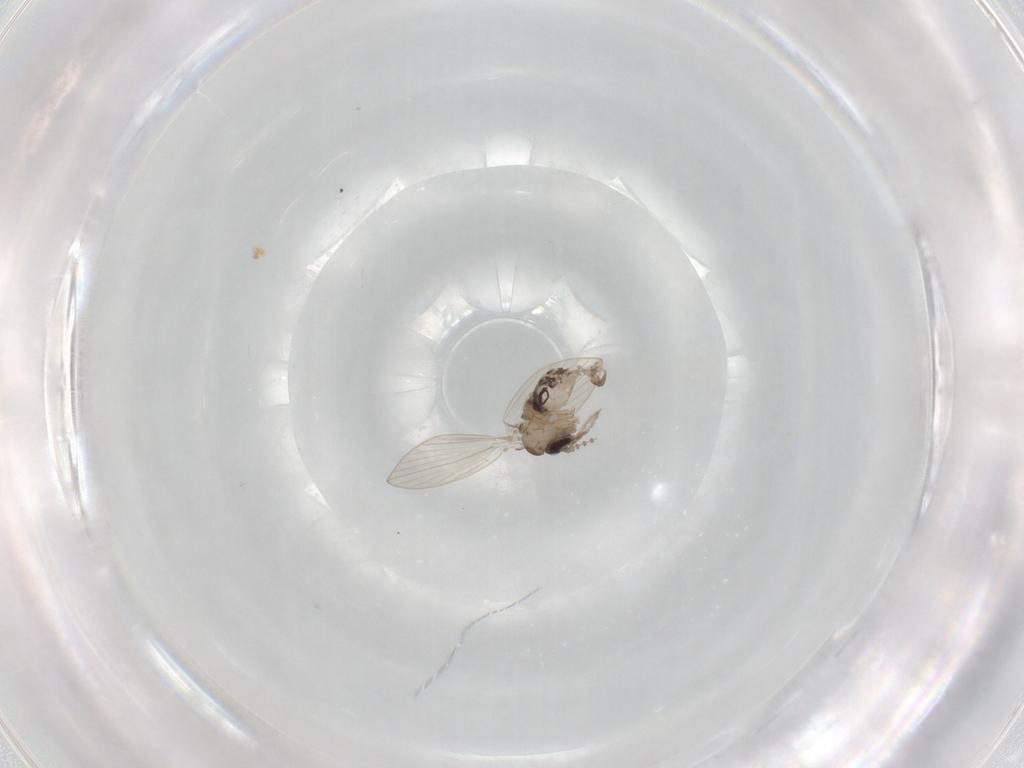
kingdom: Animalia
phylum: Arthropoda
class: Insecta
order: Diptera
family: Psychodidae
